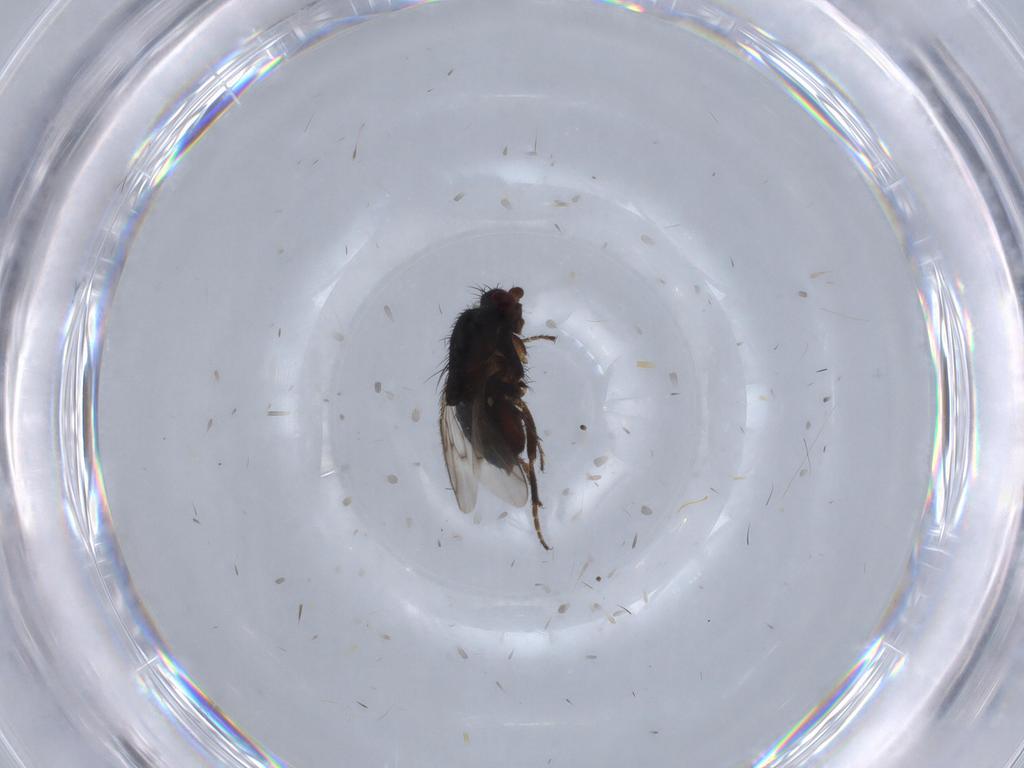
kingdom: Animalia
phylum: Arthropoda
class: Insecta
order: Diptera
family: Sphaeroceridae
